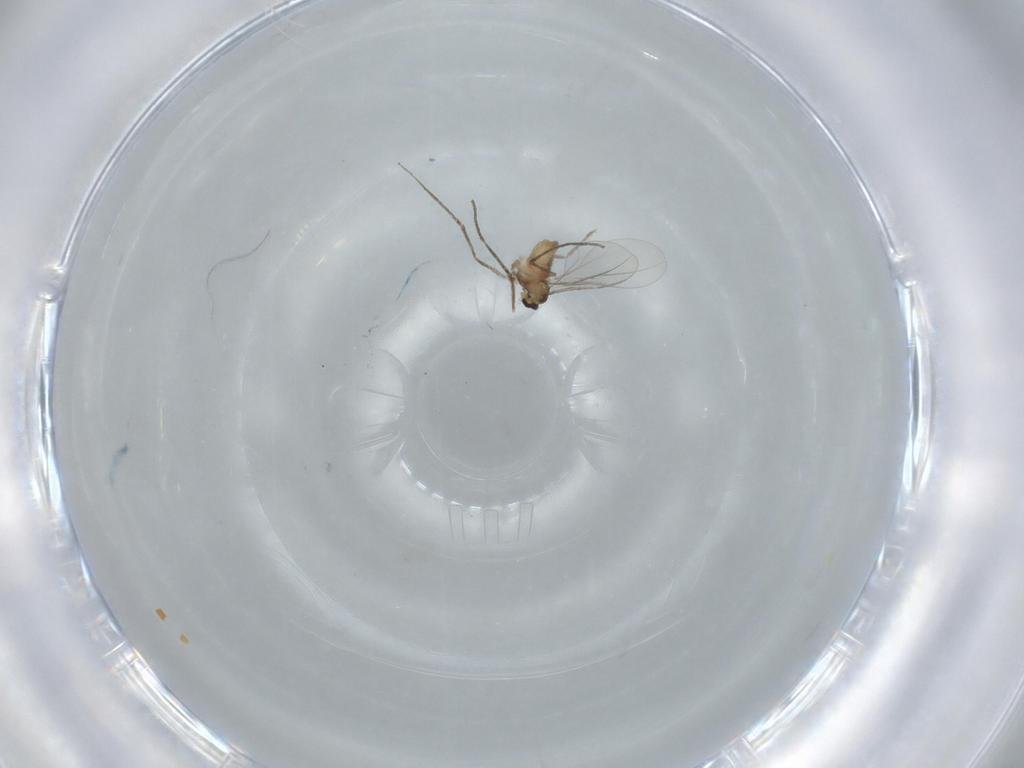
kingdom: Animalia
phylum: Arthropoda
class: Insecta
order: Diptera
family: Cecidomyiidae
